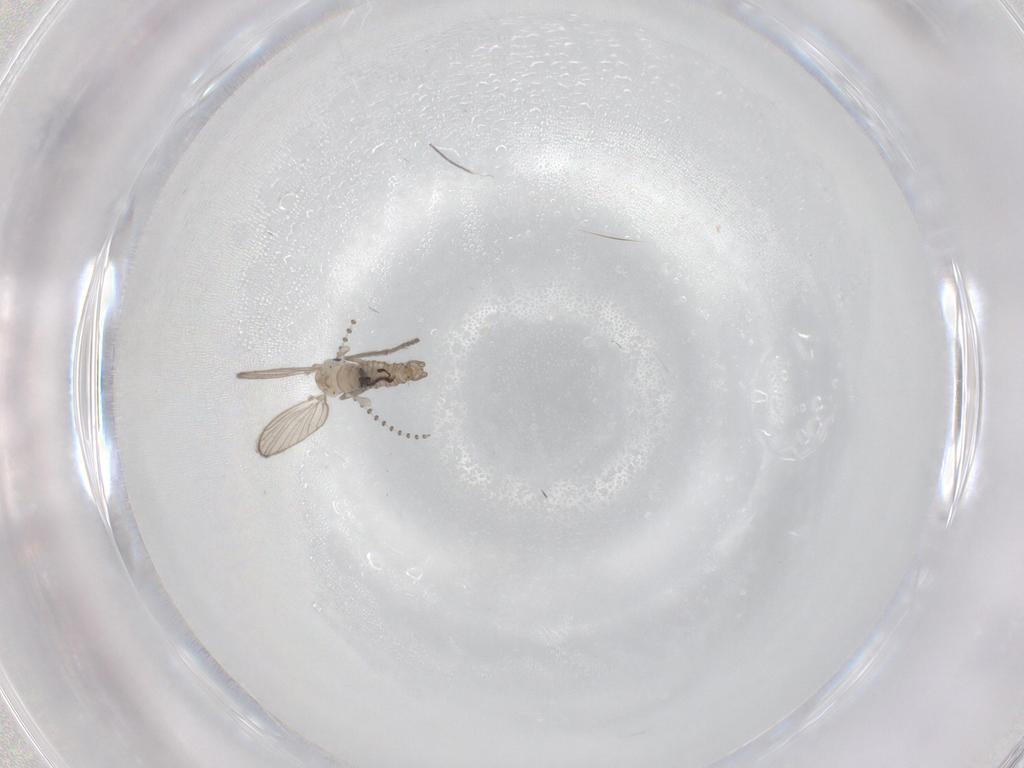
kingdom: Animalia
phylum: Arthropoda
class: Insecta
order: Diptera
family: Psychodidae
